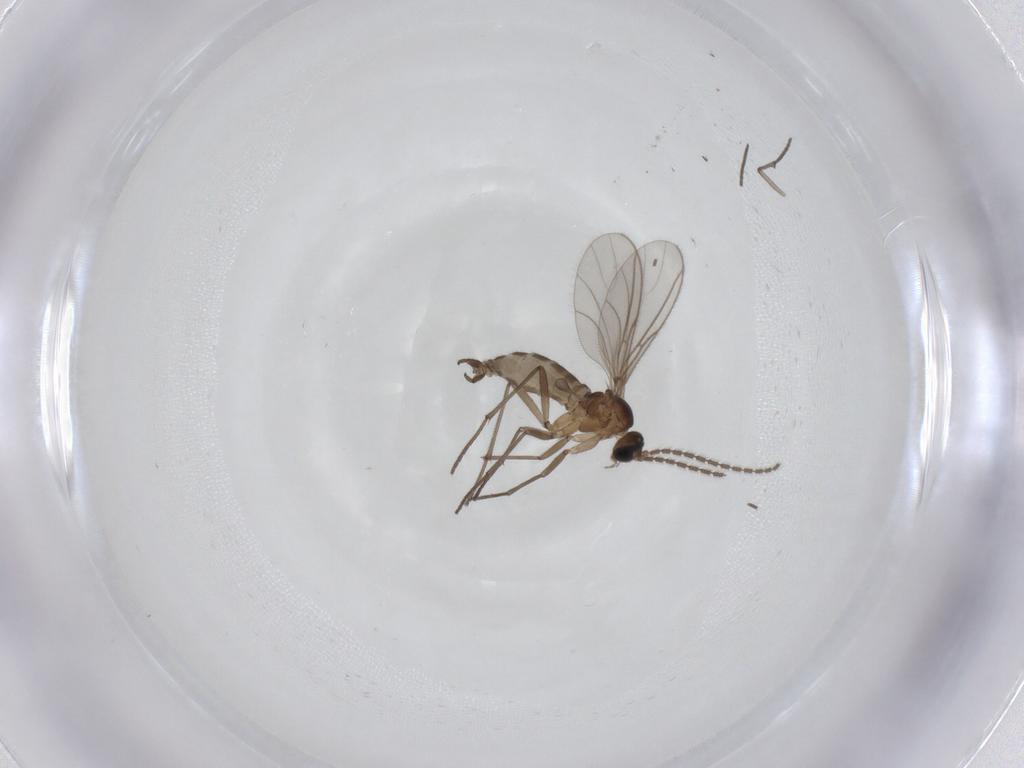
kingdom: Animalia
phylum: Arthropoda
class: Insecta
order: Diptera
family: Sciaridae
